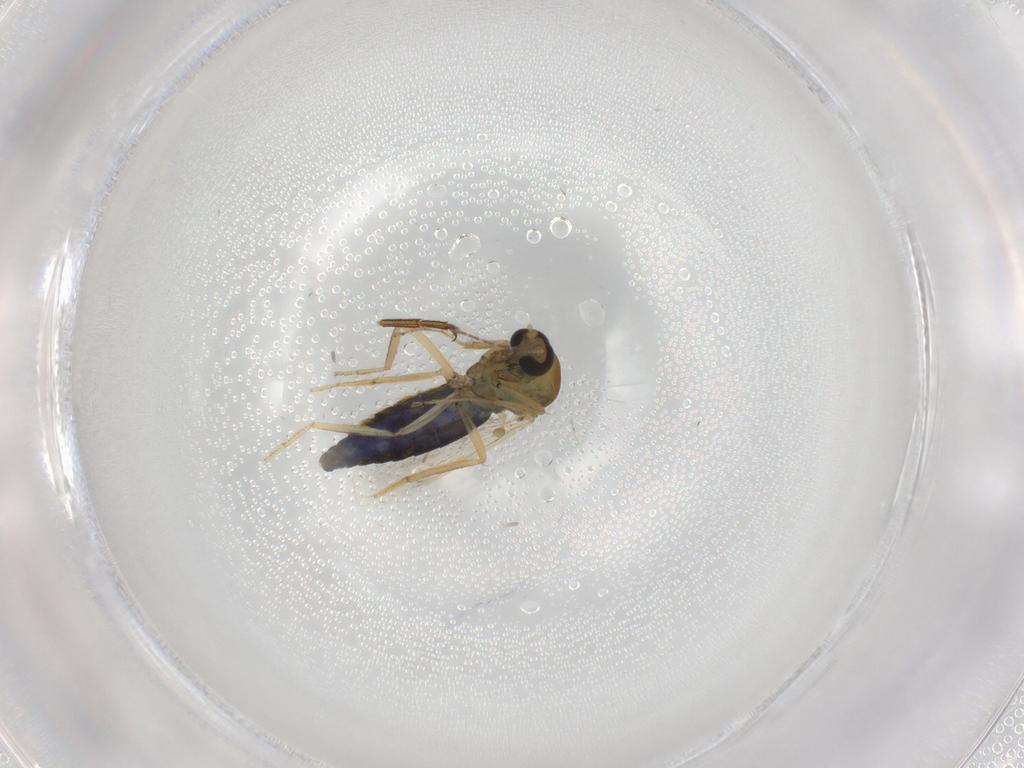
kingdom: Animalia
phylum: Arthropoda
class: Insecta
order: Diptera
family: Ceratopogonidae
